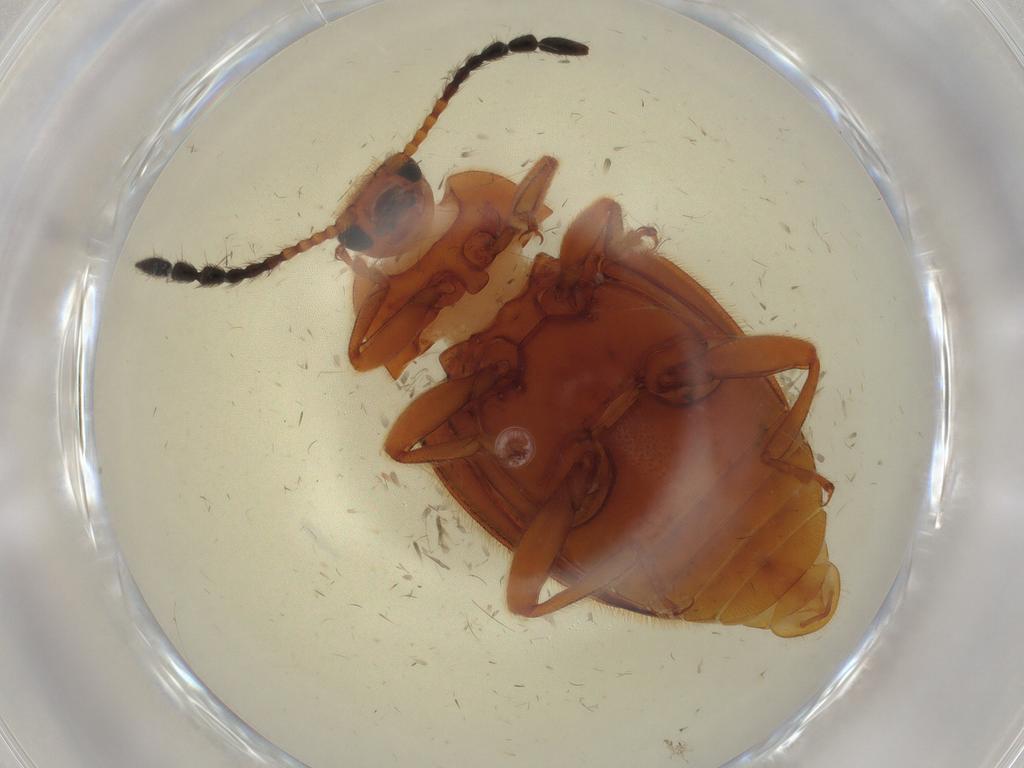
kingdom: Animalia
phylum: Arthropoda
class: Insecta
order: Coleoptera
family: Endomychidae
